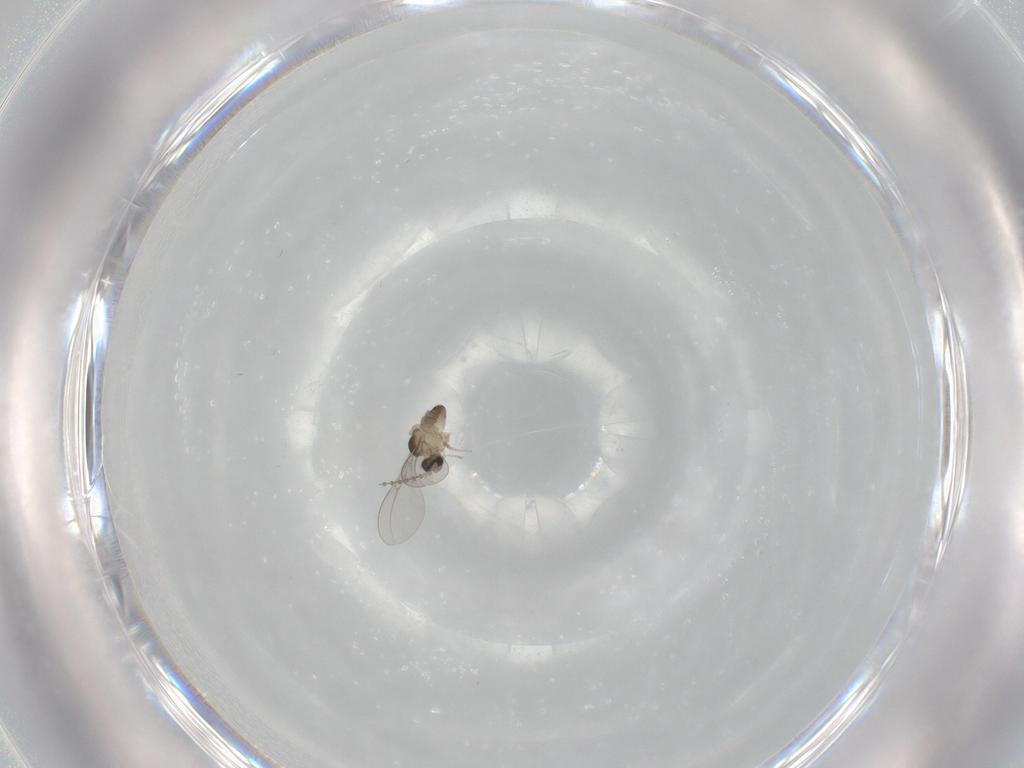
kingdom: Animalia
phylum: Arthropoda
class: Insecta
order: Diptera
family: Cecidomyiidae
